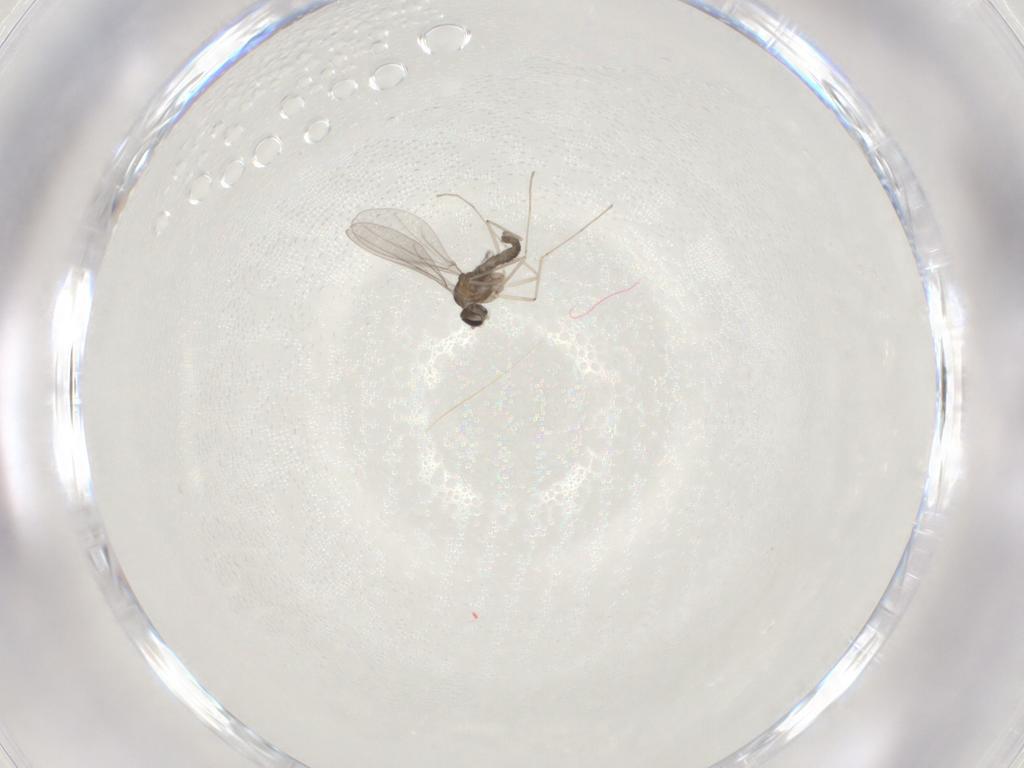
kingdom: Animalia
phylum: Arthropoda
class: Insecta
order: Diptera
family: Cecidomyiidae
